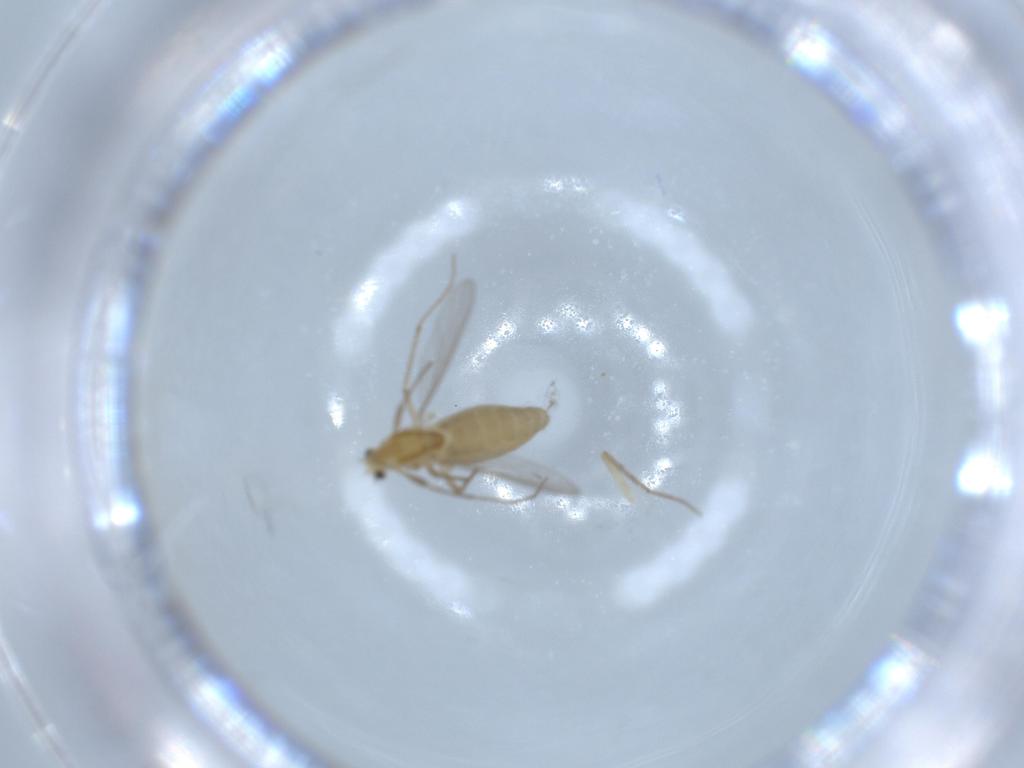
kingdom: Animalia
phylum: Arthropoda
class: Insecta
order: Diptera
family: Chironomidae
